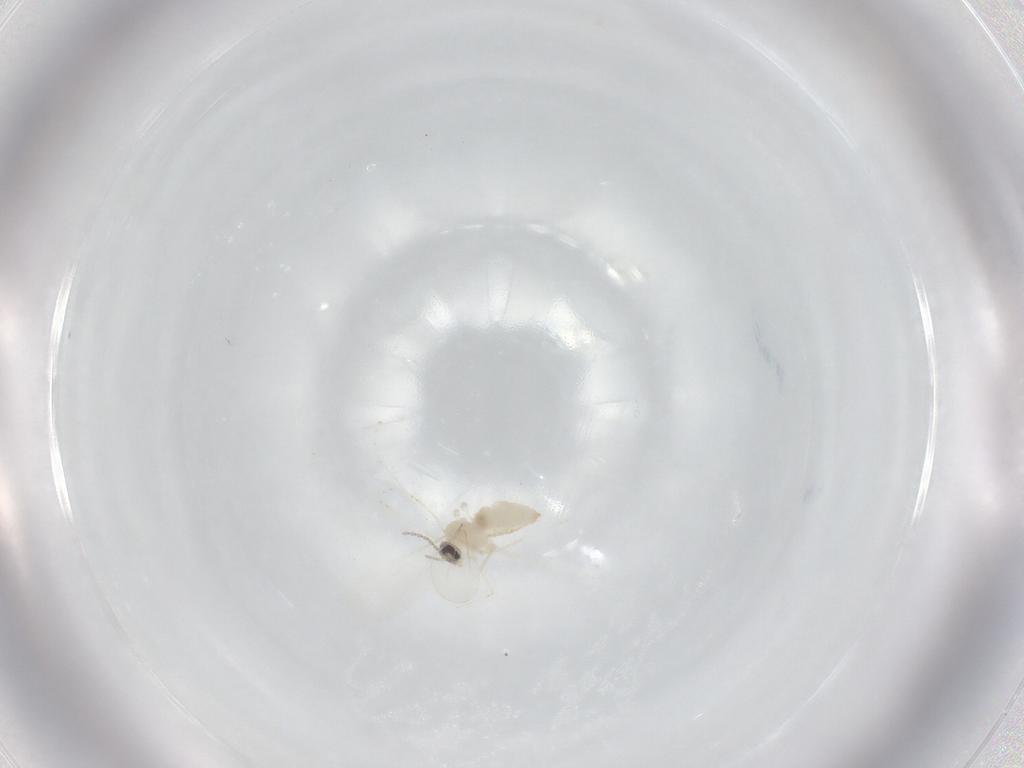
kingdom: Animalia
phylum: Arthropoda
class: Insecta
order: Diptera
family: Cecidomyiidae
